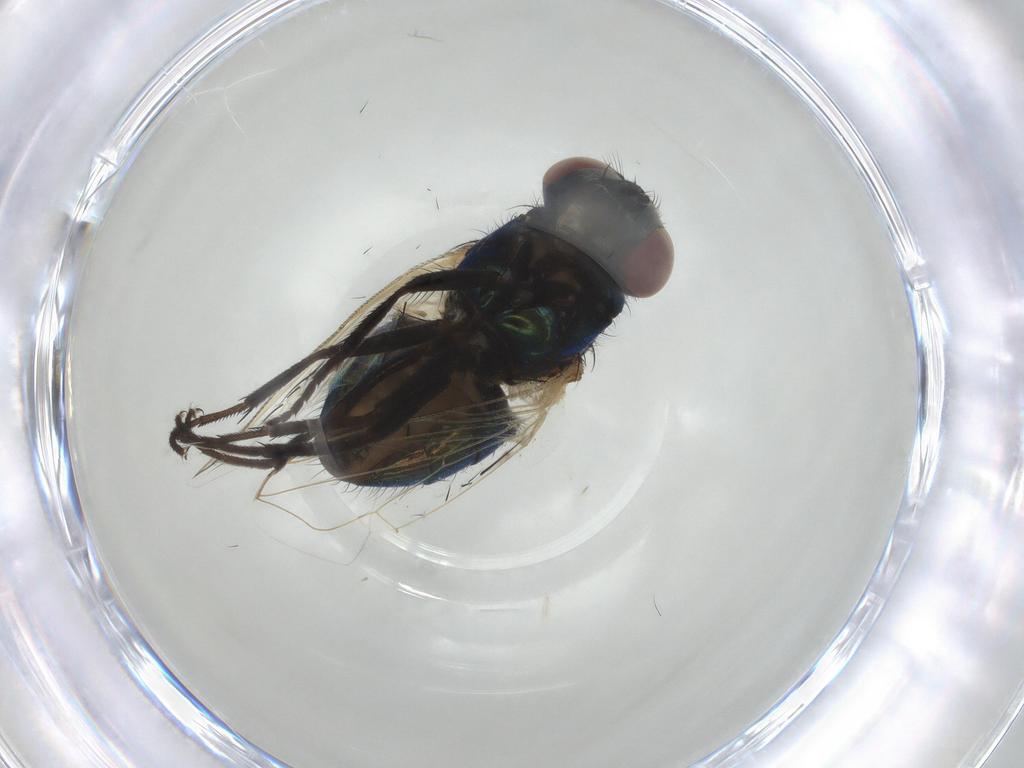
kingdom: Animalia
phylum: Arthropoda
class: Insecta
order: Diptera
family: Muscidae
